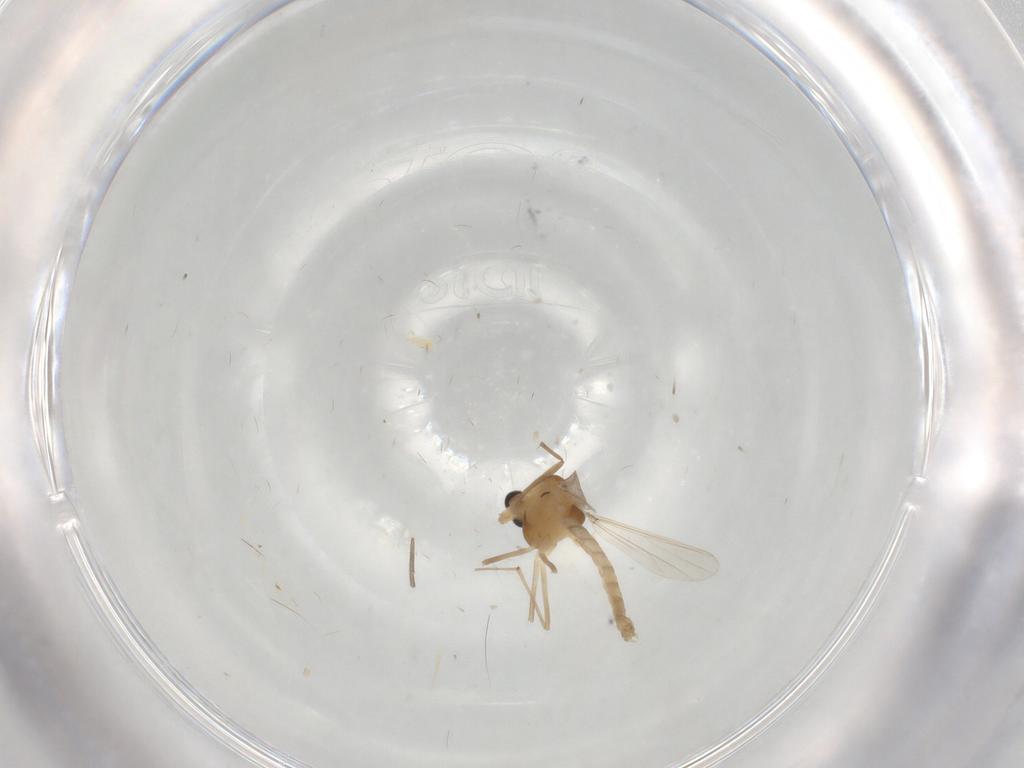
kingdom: Animalia
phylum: Arthropoda
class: Insecta
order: Diptera
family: Chironomidae
